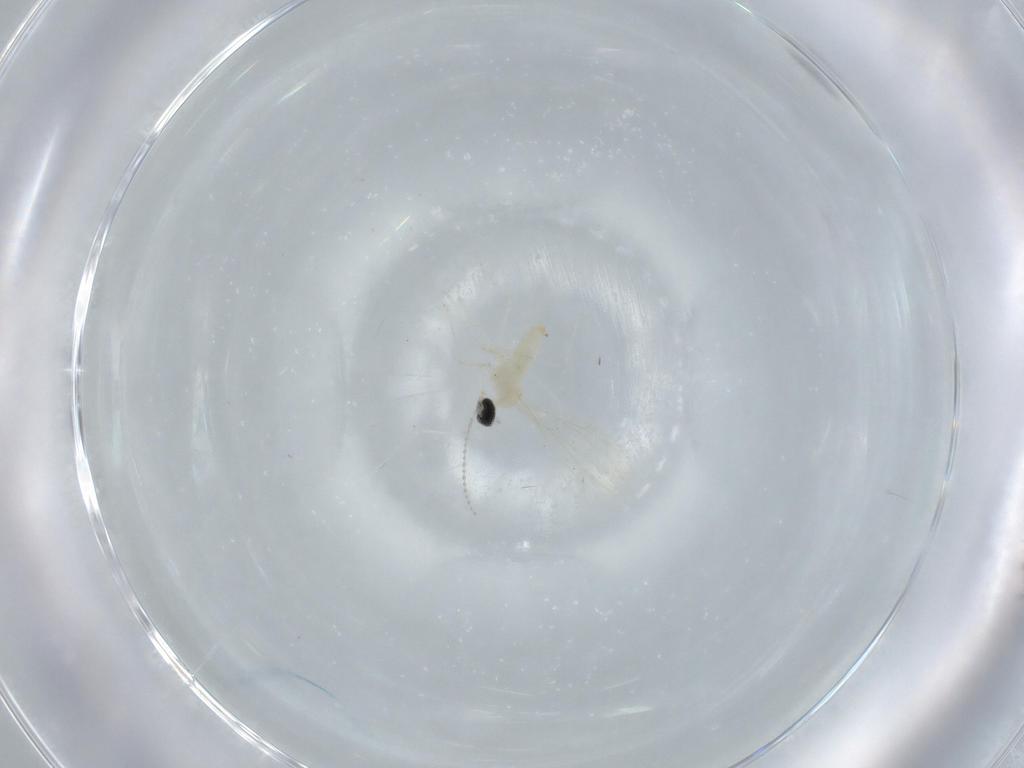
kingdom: Animalia
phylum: Arthropoda
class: Insecta
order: Diptera
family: Cecidomyiidae
